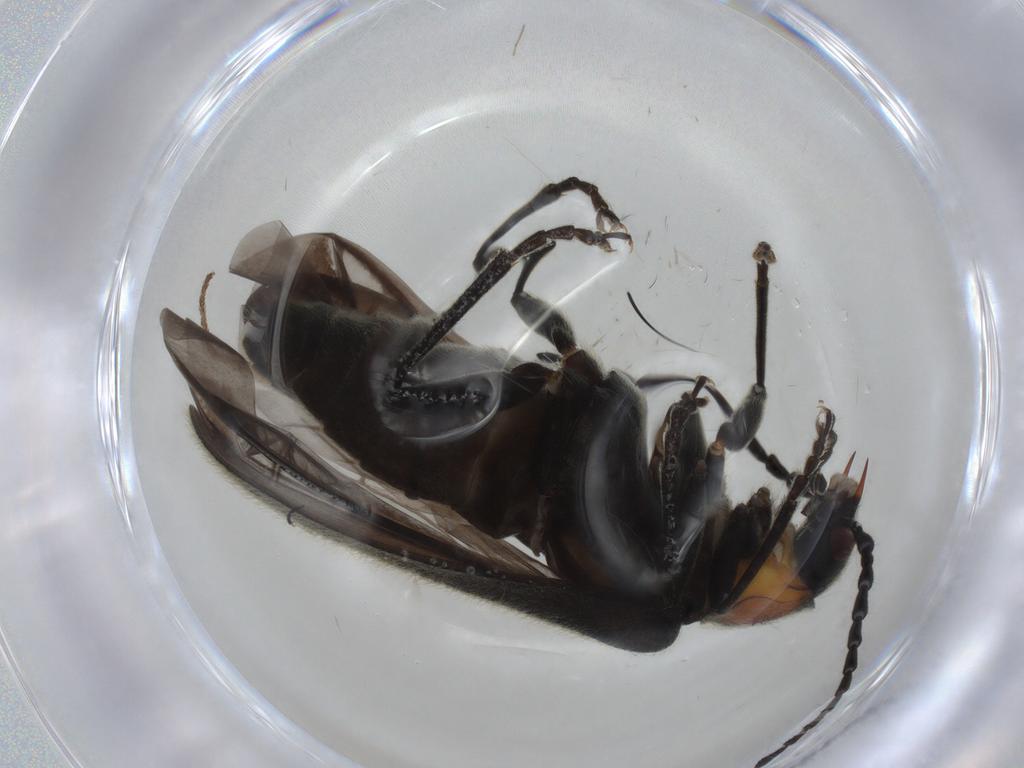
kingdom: Animalia
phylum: Arthropoda
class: Insecta
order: Coleoptera
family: Cantharidae
